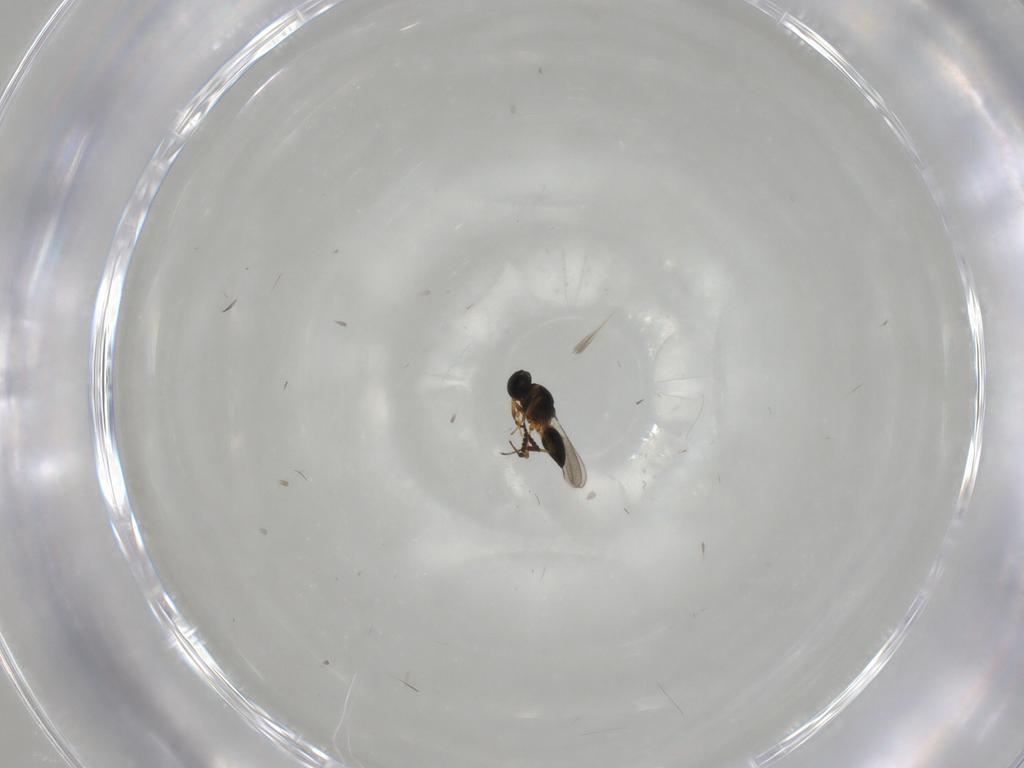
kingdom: Animalia
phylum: Arthropoda
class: Insecta
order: Hymenoptera
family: Platygastridae
